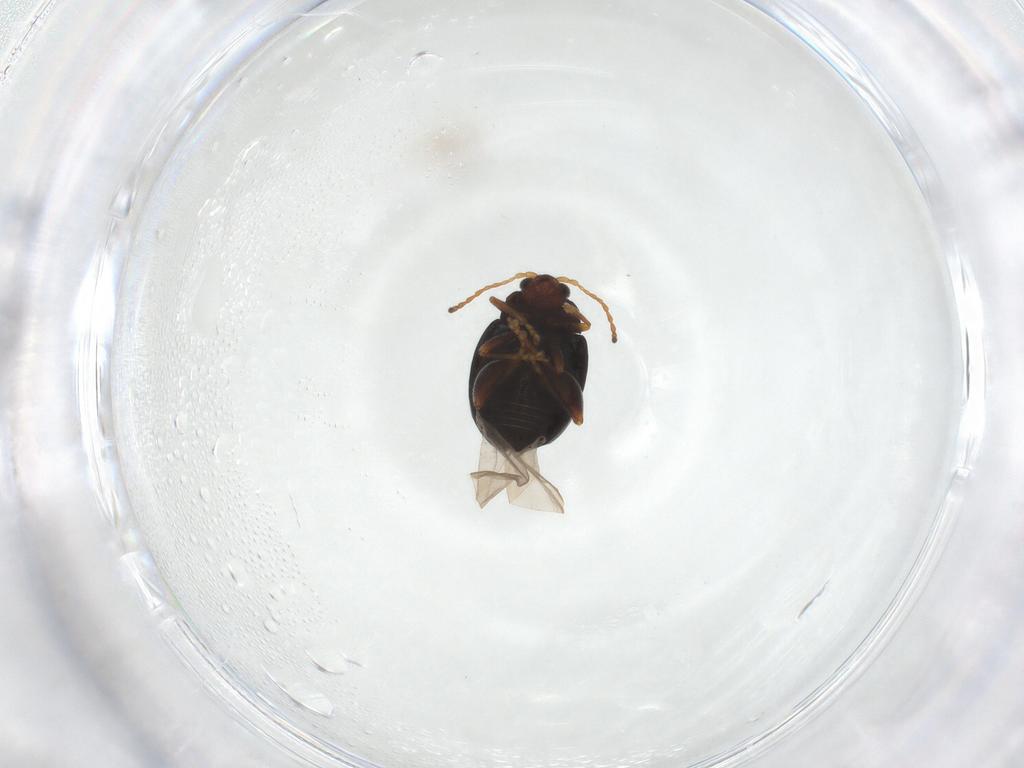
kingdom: Animalia
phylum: Arthropoda
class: Insecta
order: Coleoptera
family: Chrysomelidae
